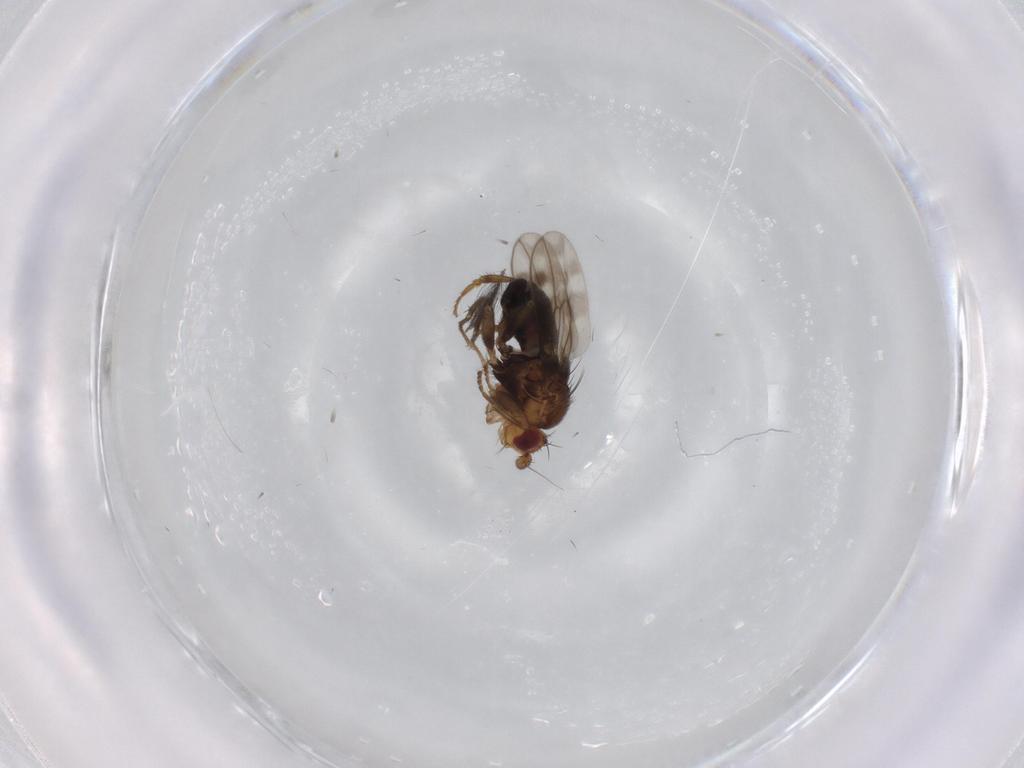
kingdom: Animalia
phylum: Arthropoda
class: Insecta
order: Diptera
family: Sphaeroceridae
